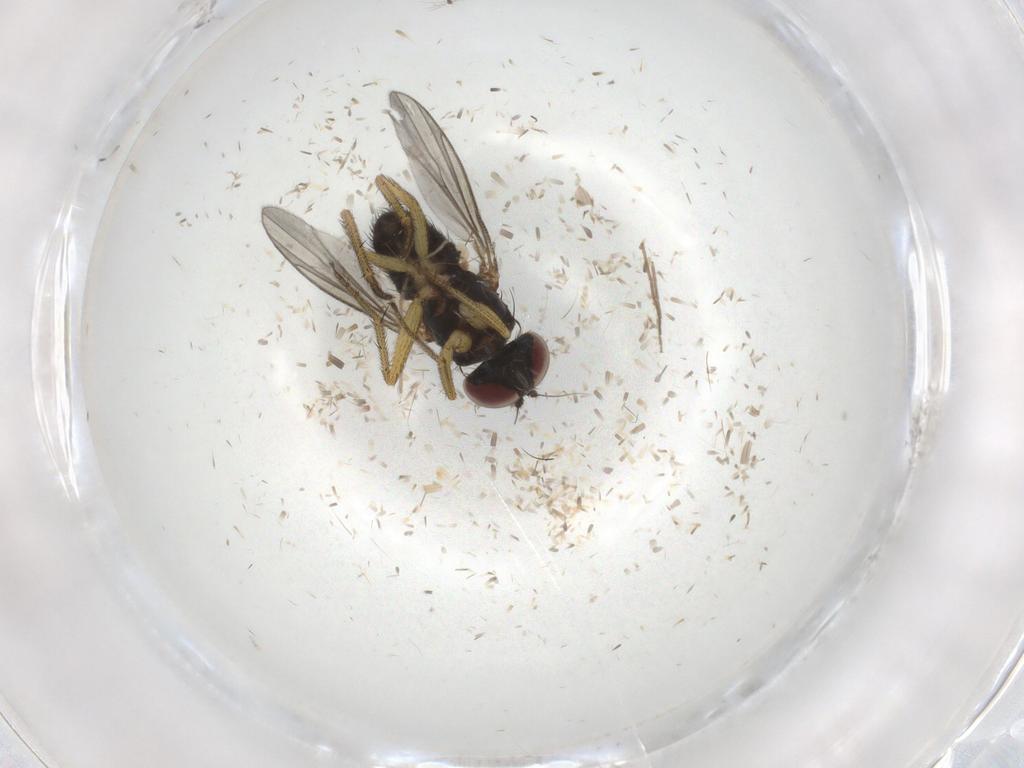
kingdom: Animalia
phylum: Arthropoda
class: Insecta
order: Diptera
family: Chironomidae
